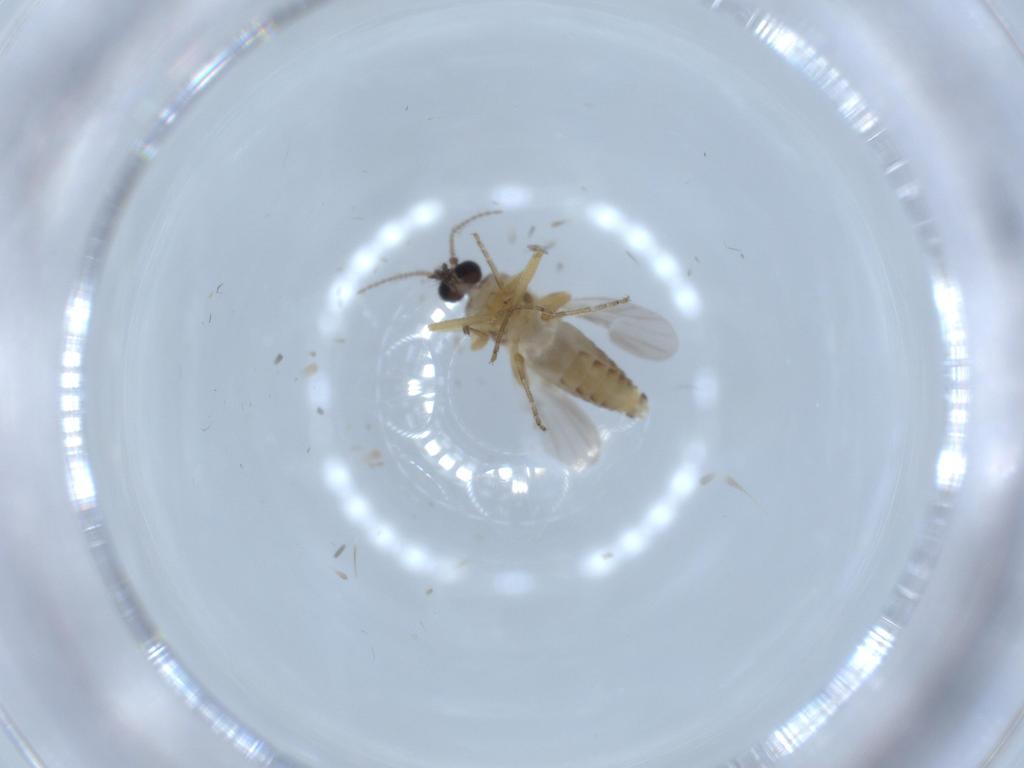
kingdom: Animalia
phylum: Arthropoda
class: Insecta
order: Diptera
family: Ceratopogonidae
